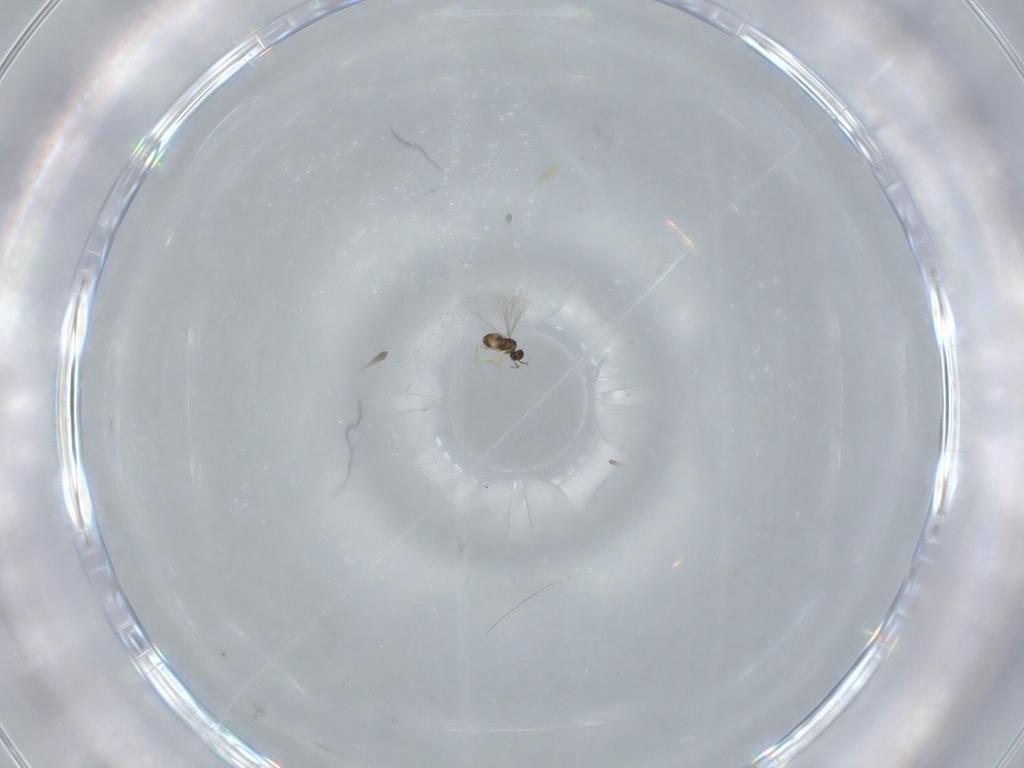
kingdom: Animalia
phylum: Arthropoda
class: Insecta
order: Hymenoptera
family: Mymaridae
